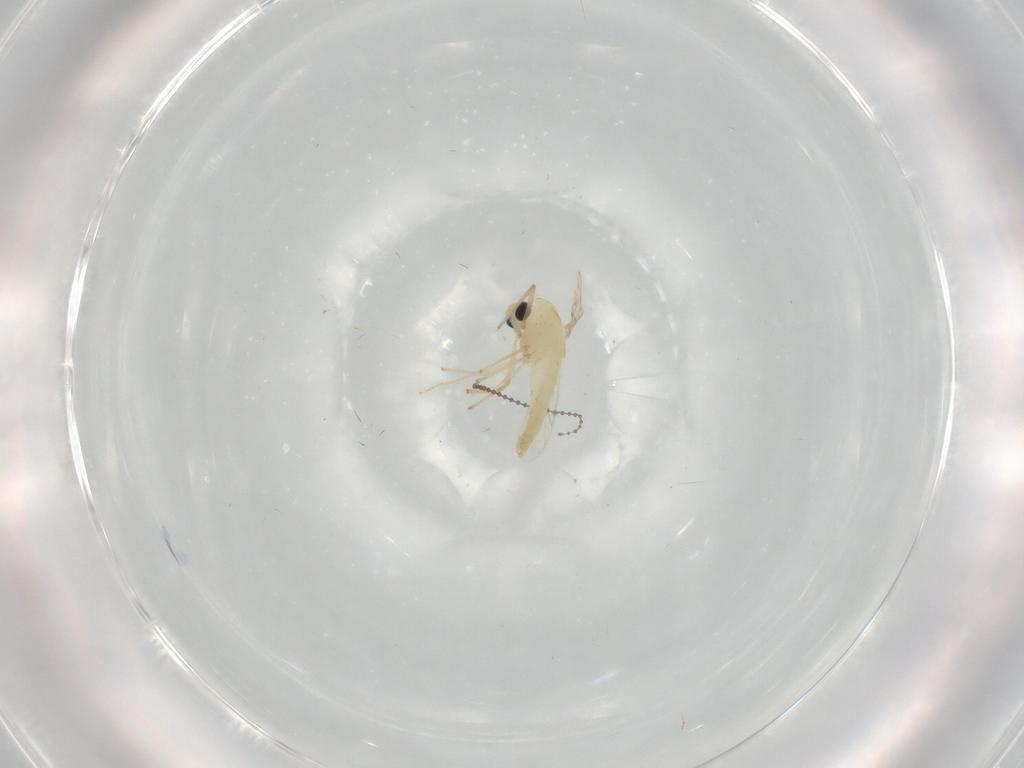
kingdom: Animalia
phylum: Arthropoda
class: Insecta
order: Diptera
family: Chironomidae
